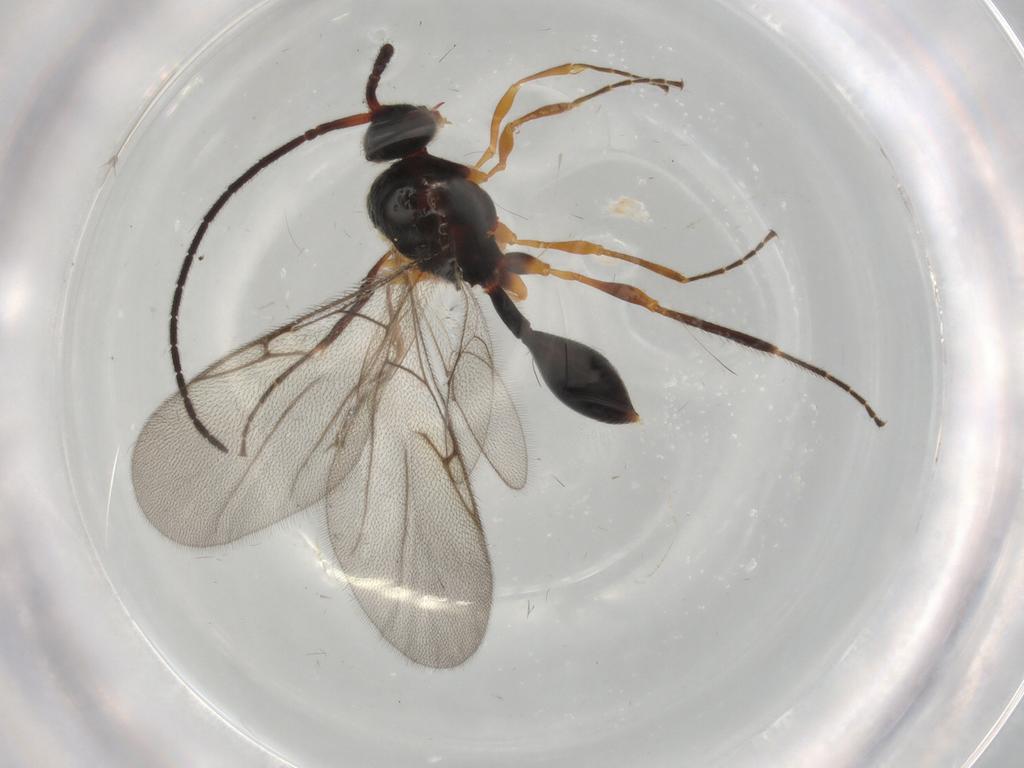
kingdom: Animalia
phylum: Arthropoda
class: Insecta
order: Hymenoptera
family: Diapriidae
